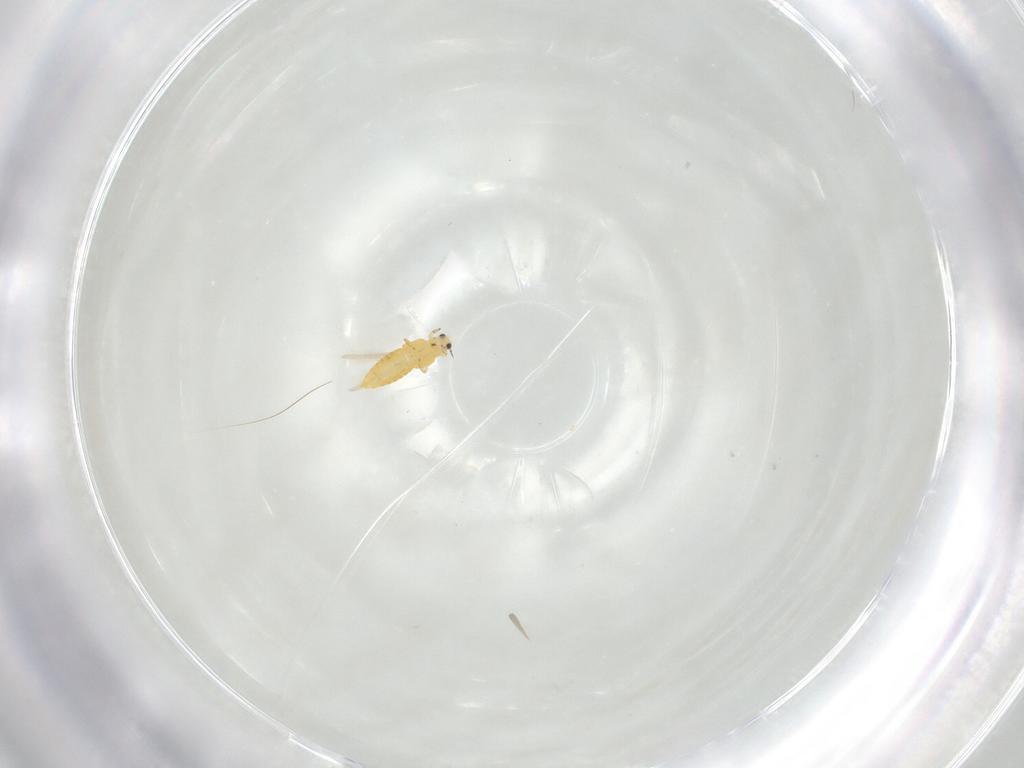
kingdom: Animalia
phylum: Arthropoda
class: Insecta
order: Thysanoptera
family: Thripidae
